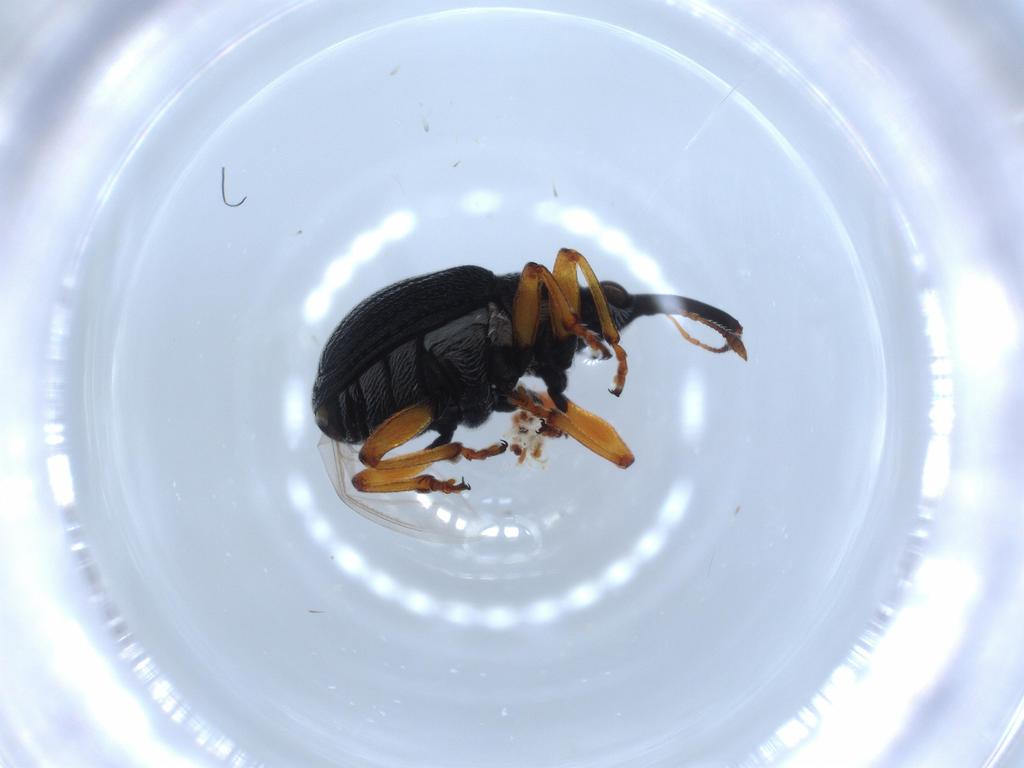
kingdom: Animalia
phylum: Arthropoda
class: Insecta
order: Coleoptera
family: Brentidae
